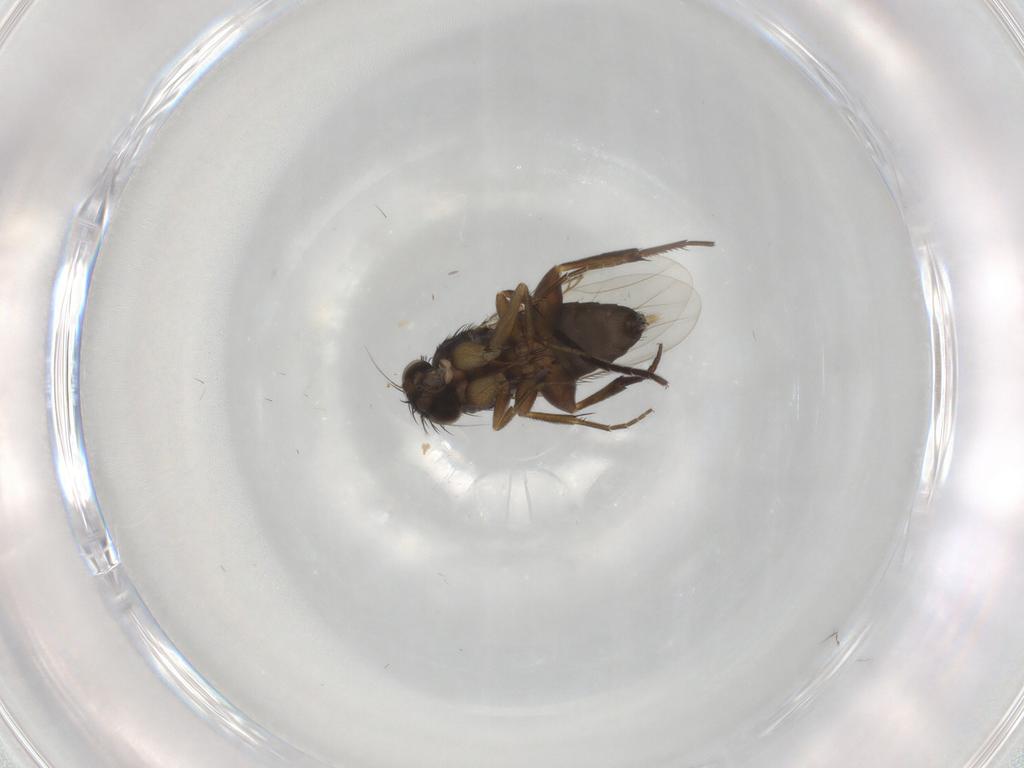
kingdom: Animalia
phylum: Arthropoda
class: Insecta
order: Diptera
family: Phoridae
